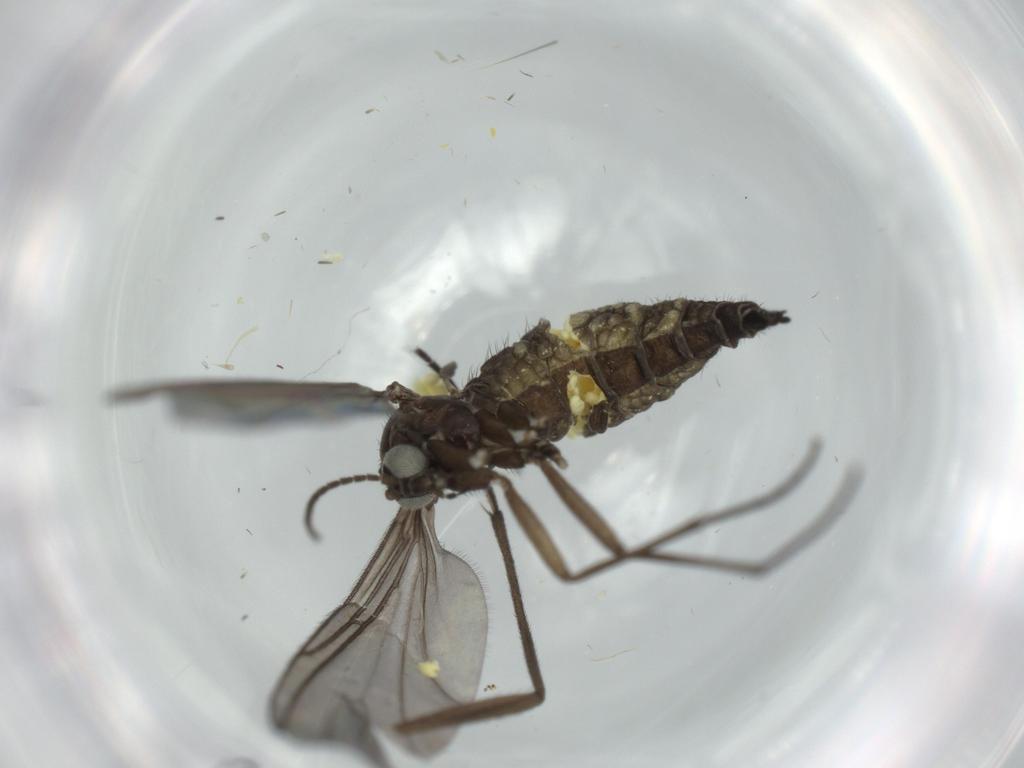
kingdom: Animalia
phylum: Arthropoda
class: Insecta
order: Diptera
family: Sciaridae
